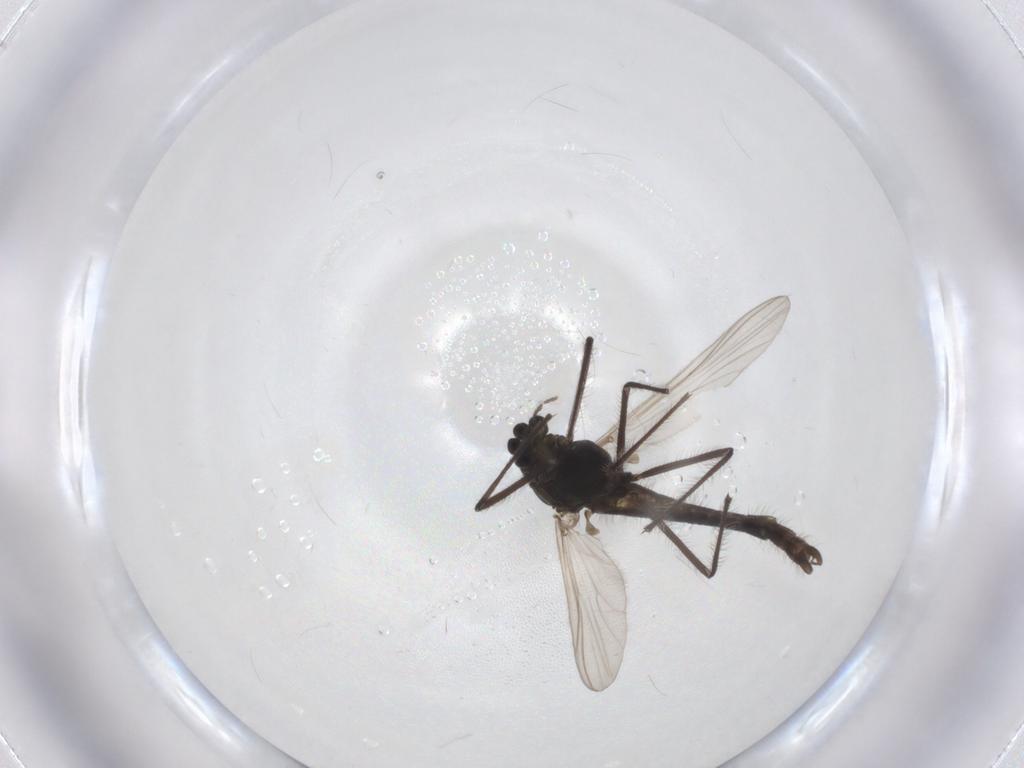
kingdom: Animalia
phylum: Arthropoda
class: Insecta
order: Diptera
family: Chironomidae
